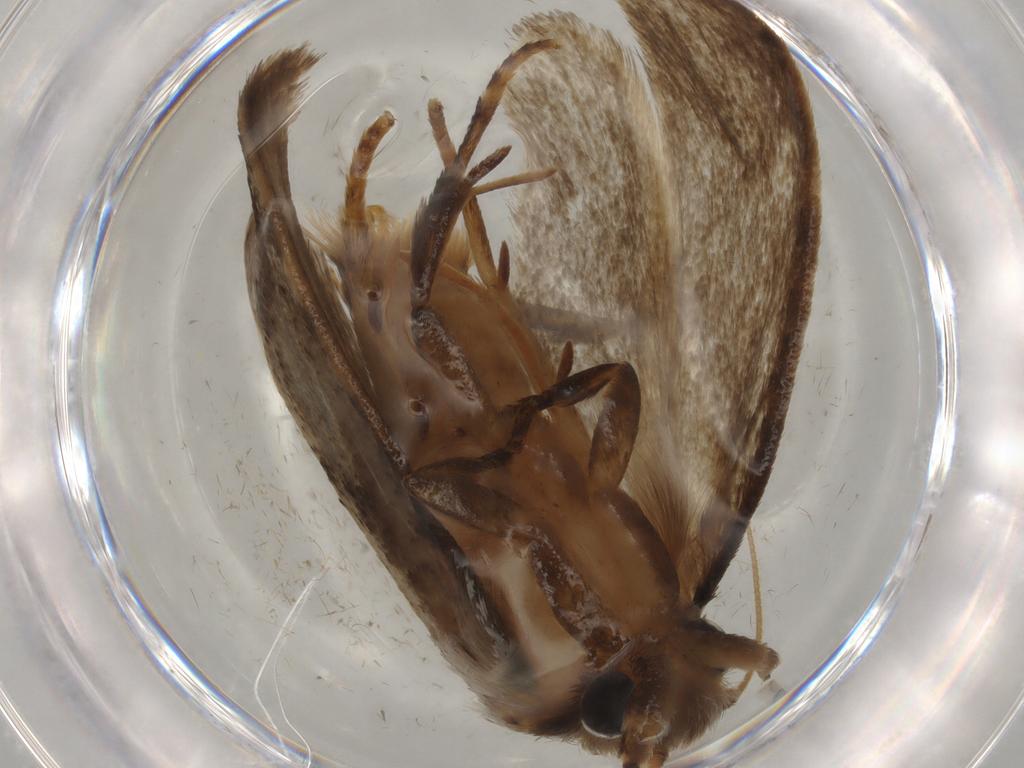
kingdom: Animalia
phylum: Arthropoda
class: Insecta
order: Lepidoptera
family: Tineidae
